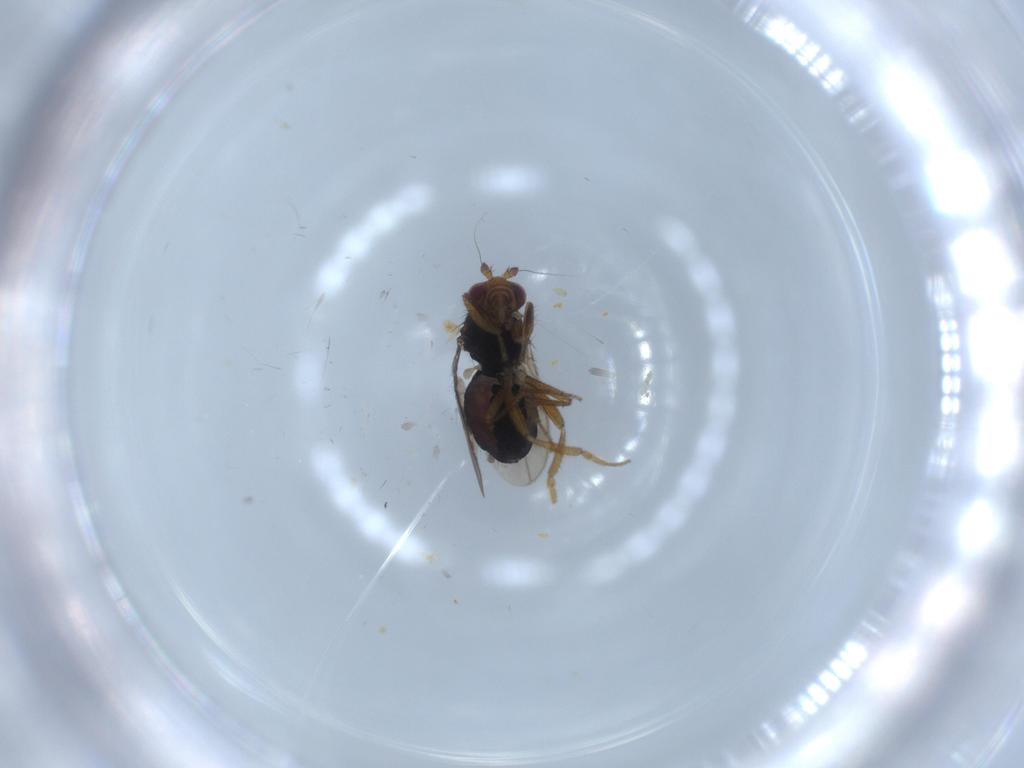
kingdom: Animalia
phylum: Arthropoda
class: Insecta
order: Diptera
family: Sphaeroceridae
